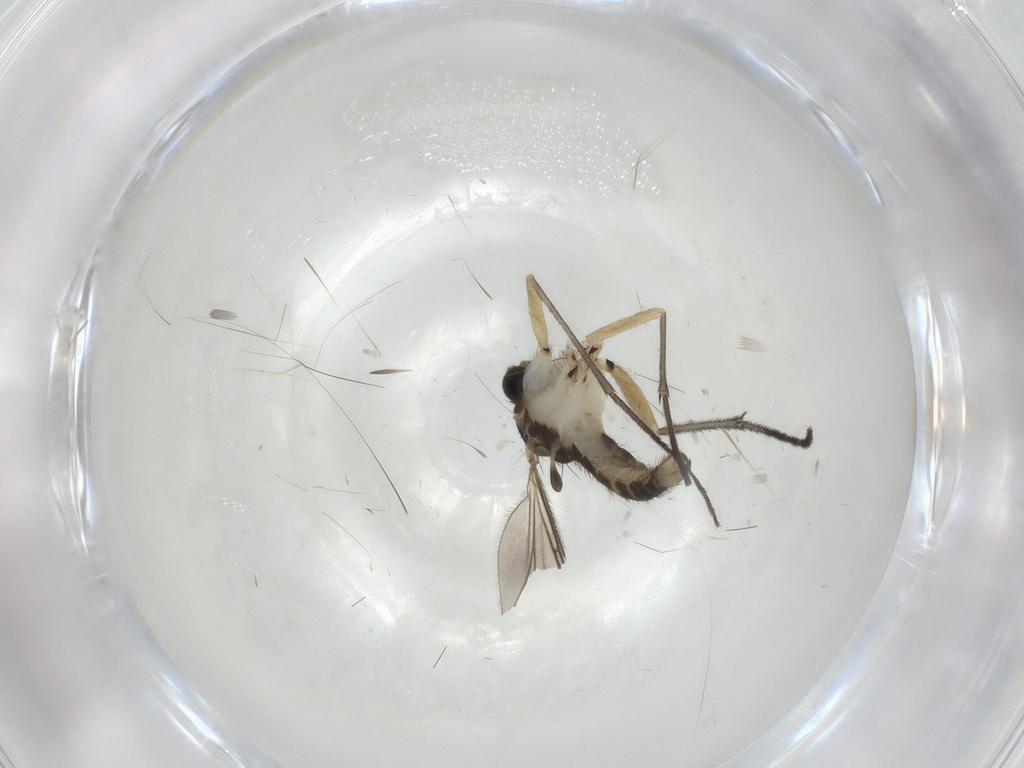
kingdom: Animalia
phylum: Arthropoda
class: Insecta
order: Diptera
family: Sciaridae
